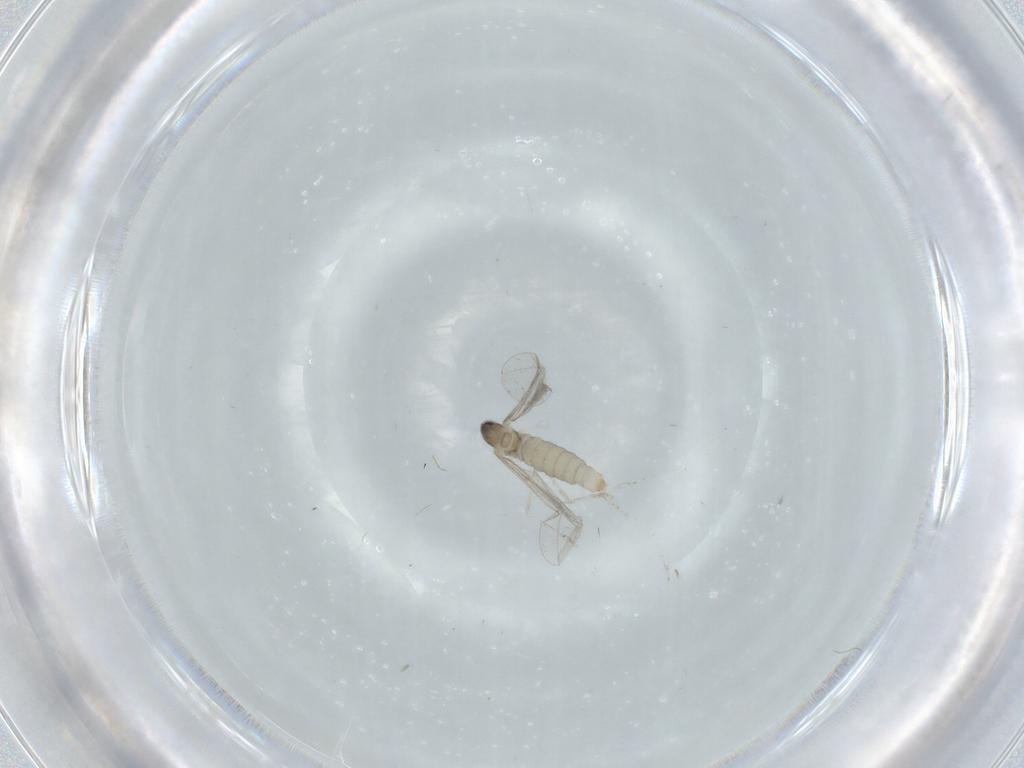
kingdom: Animalia
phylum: Arthropoda
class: Insecta
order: Diptera
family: Cecidomyiidae
